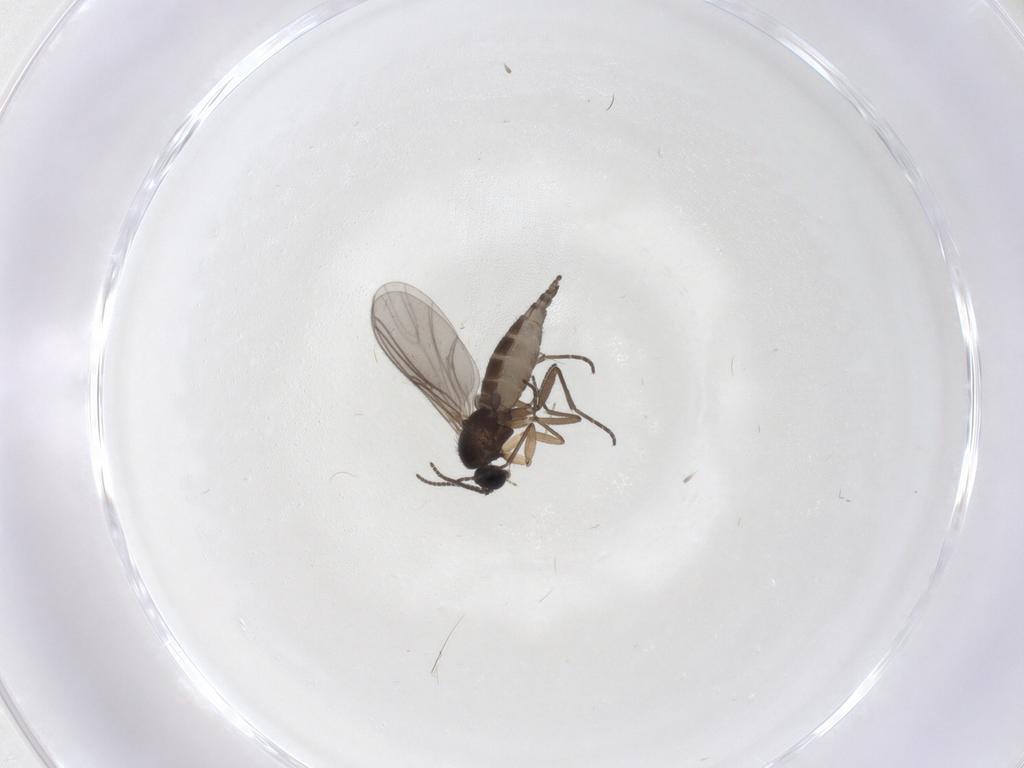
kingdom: Animalia
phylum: Arthropoda
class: Insecta
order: Diptera
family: Sciaridae
